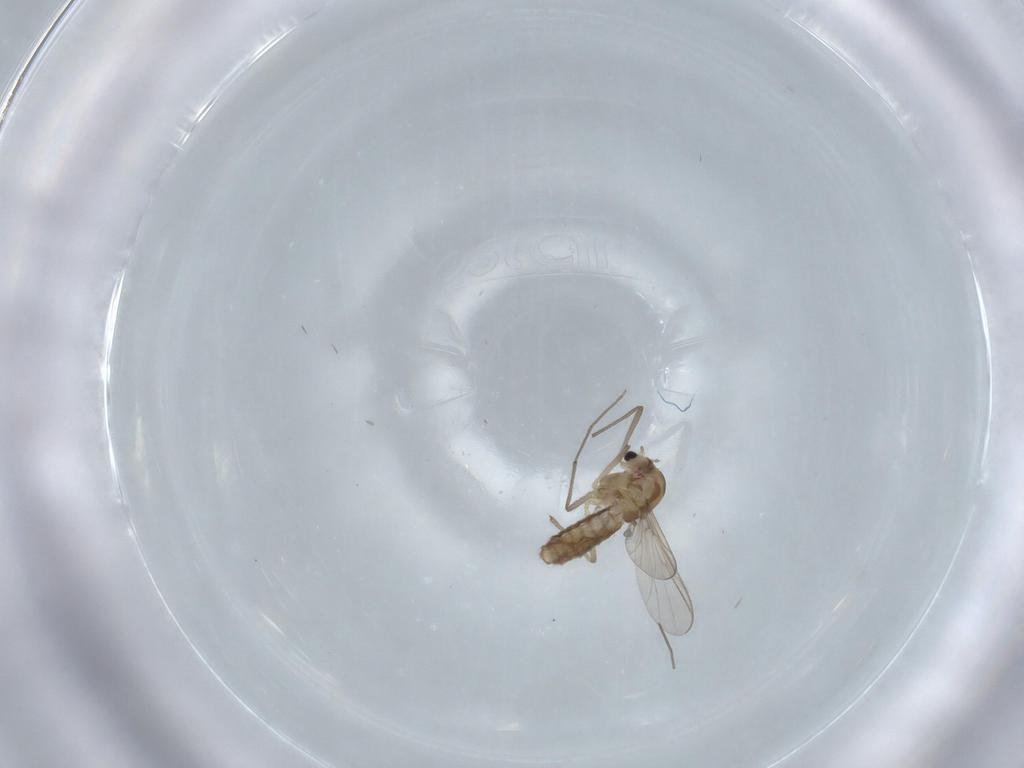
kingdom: Animalia
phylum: Arthropoda
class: Insecta
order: Diptera
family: Chironomidae
